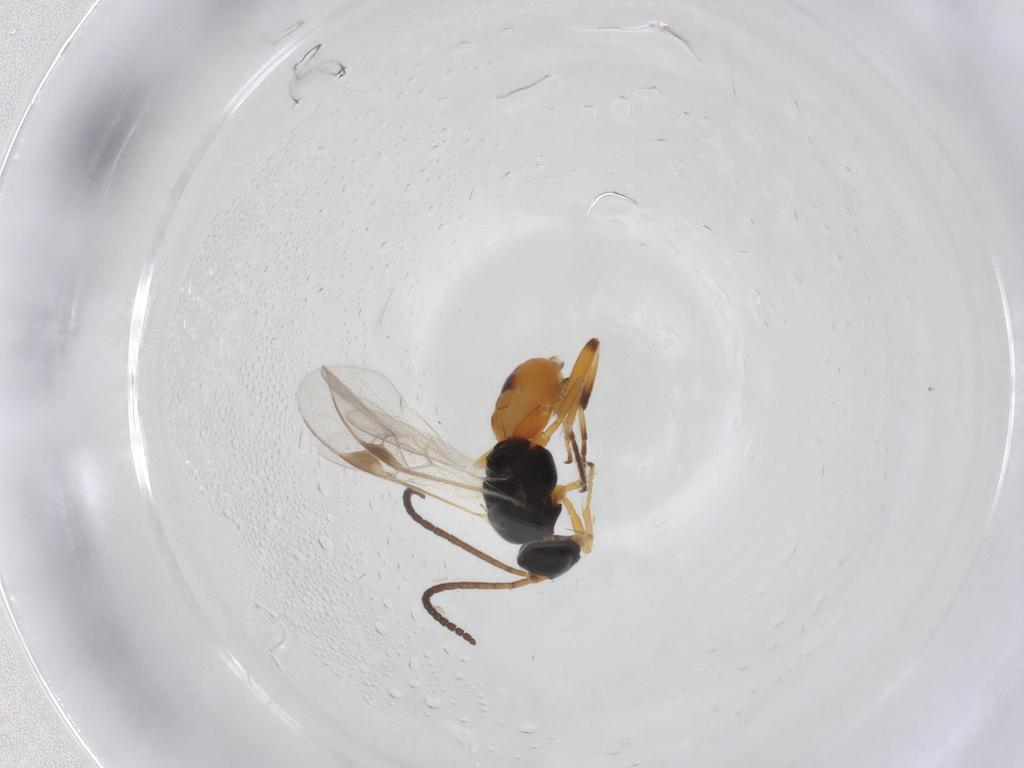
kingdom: Animalia
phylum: Arthropoda
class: Insecta
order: Hymenoptera
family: Braconidae
